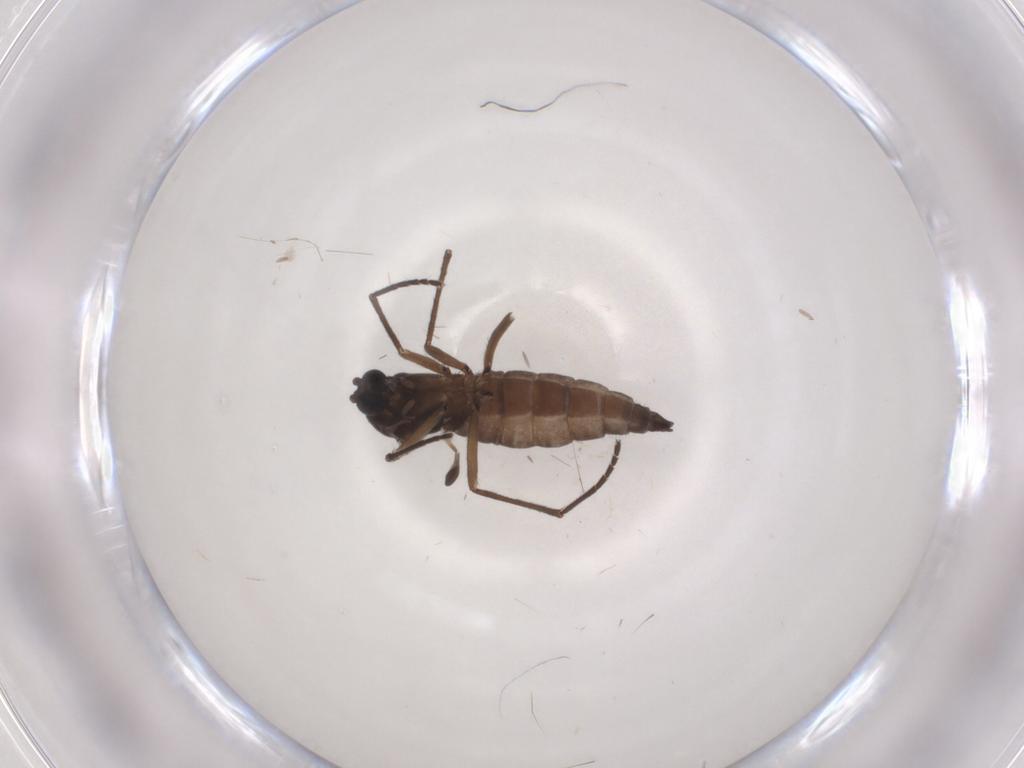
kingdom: Animalia
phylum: Arthropoda
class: Insecta
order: Diptera
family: Sciaridae
